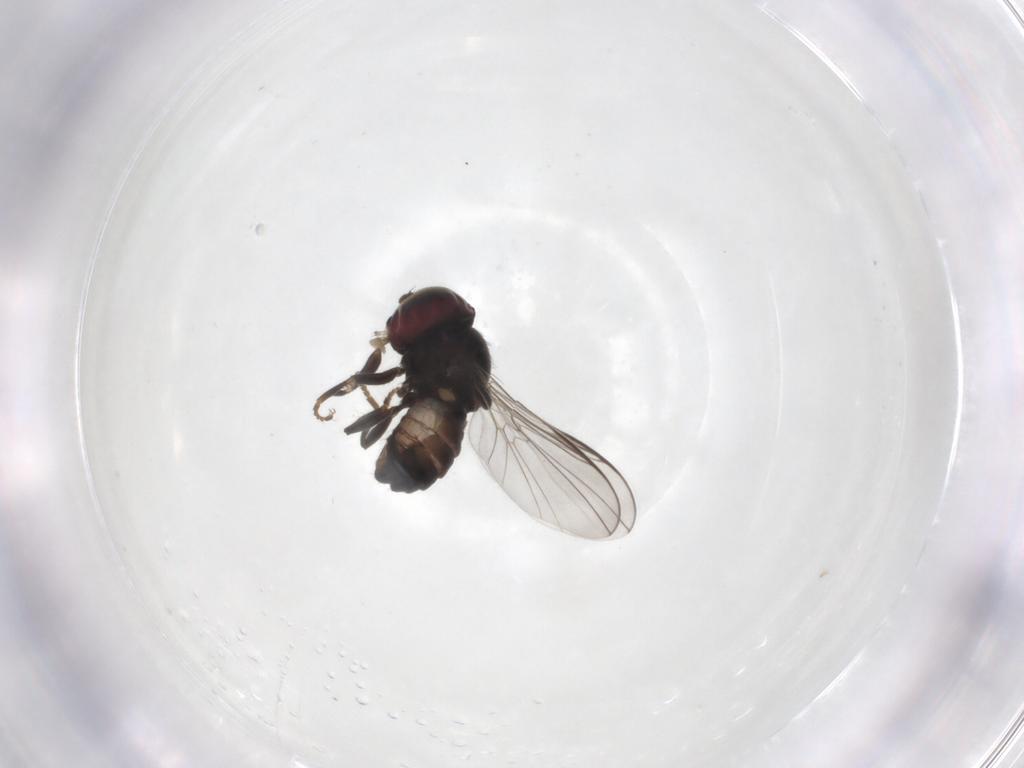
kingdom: Animalia
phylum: Arthropoda
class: Insecta
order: Diptera
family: Pipunculidae
